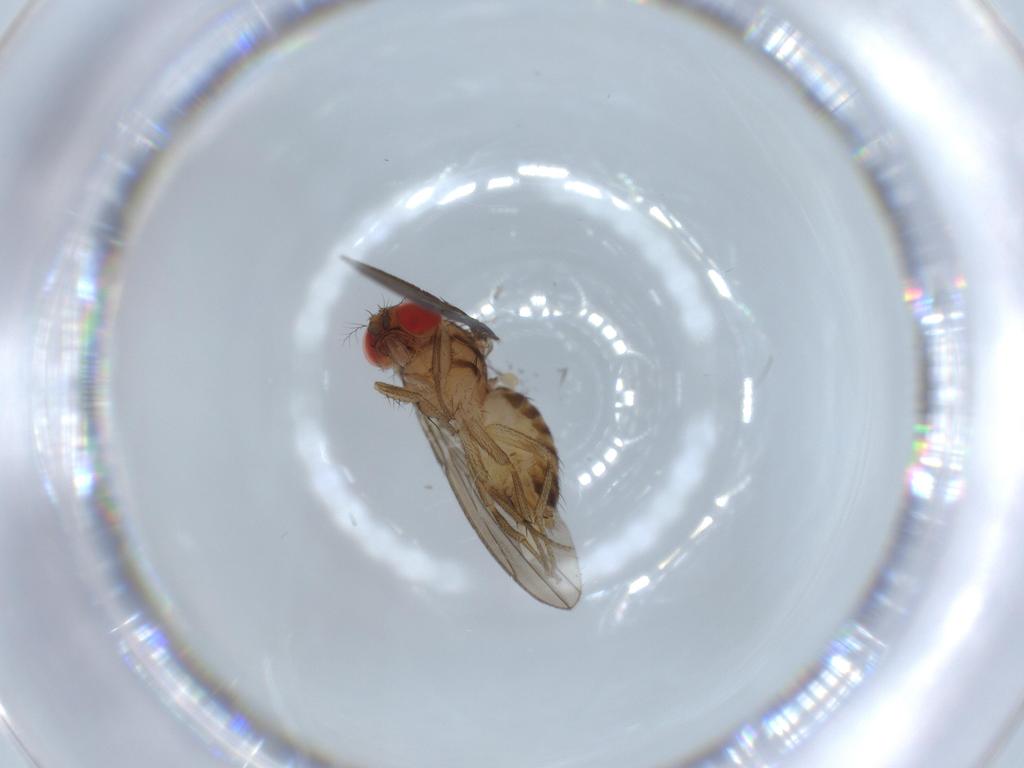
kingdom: Animalia
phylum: Arthropoda
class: Insecta
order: Diptera
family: Drosophilidae
